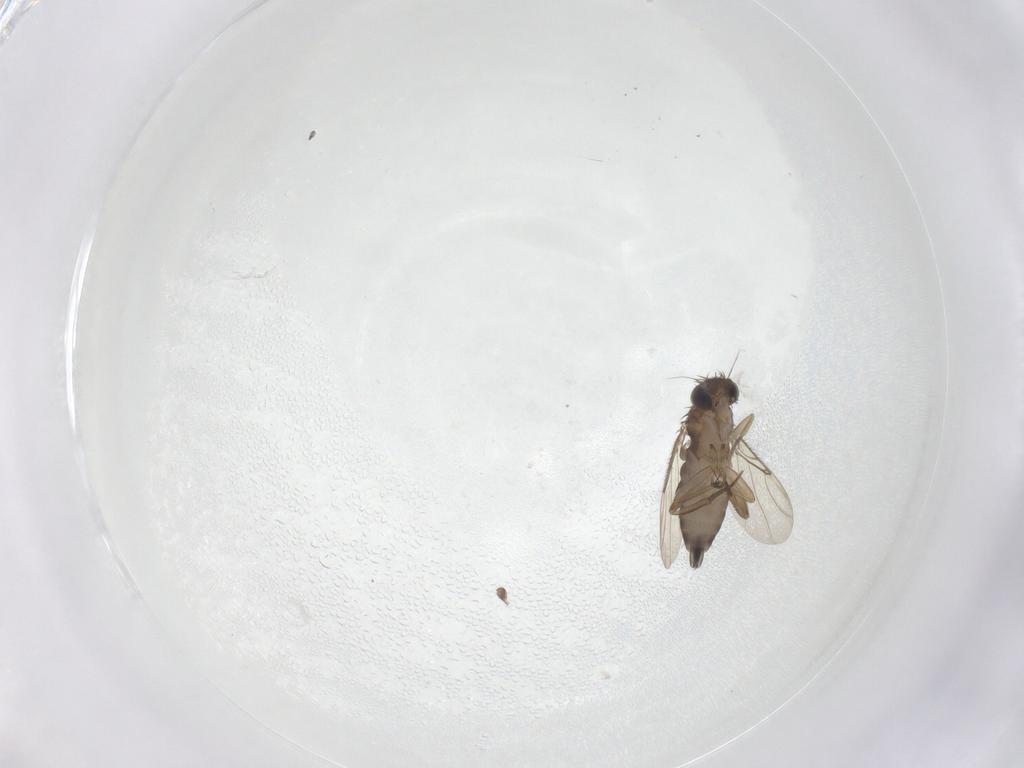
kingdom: Animalia
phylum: Arthropoda
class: Insecta
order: Diptera
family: Phoridae
